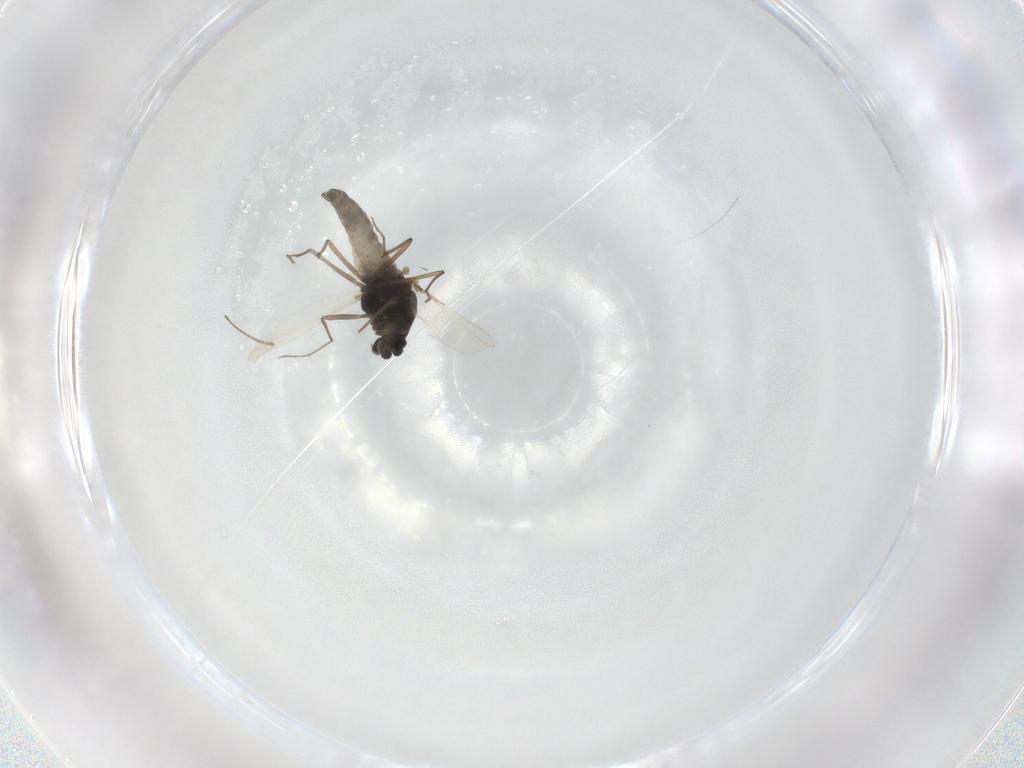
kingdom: Animalia
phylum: Arthropoda
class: Insecta
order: Diptera
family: Chironomidae
